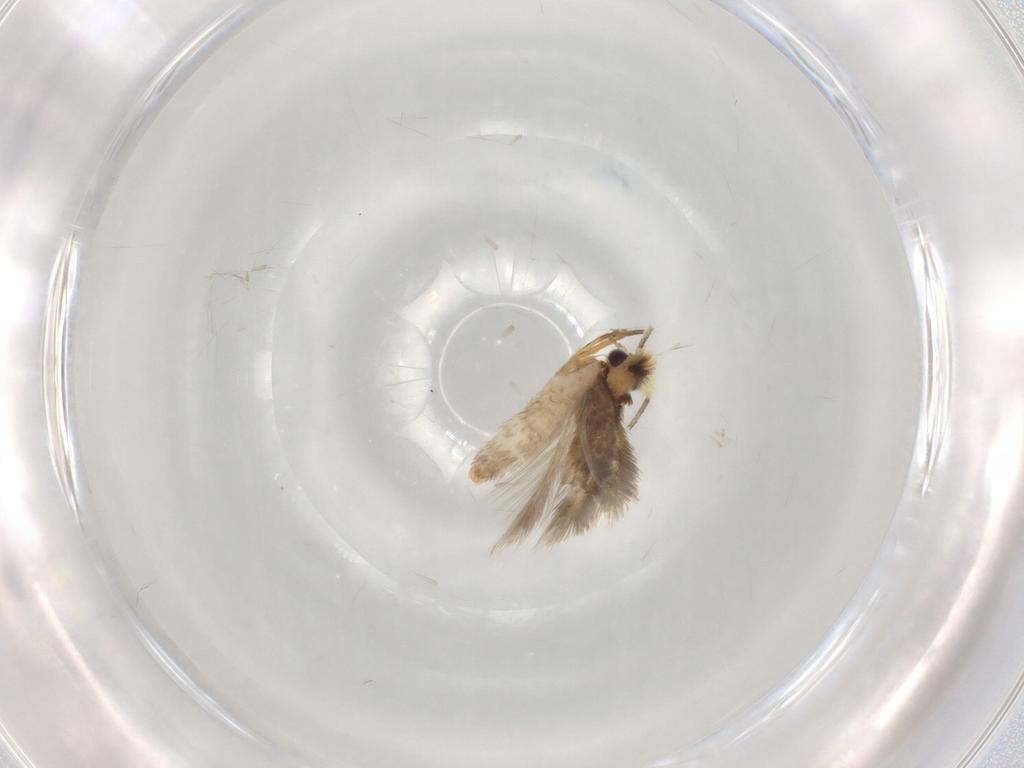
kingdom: Animalia
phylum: Arthropoda
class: Insecta
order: Lepidoptera
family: Nepticulidae
